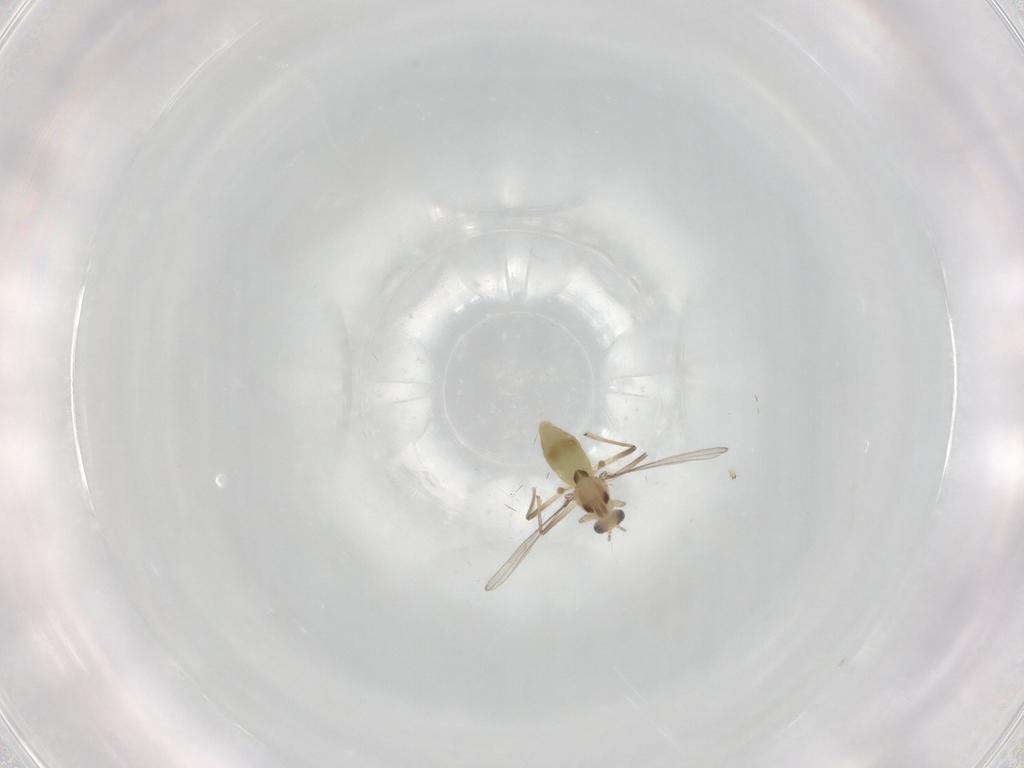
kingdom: Animalia
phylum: Arthropoda
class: Insecta
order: Diptera
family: Chironomidae
